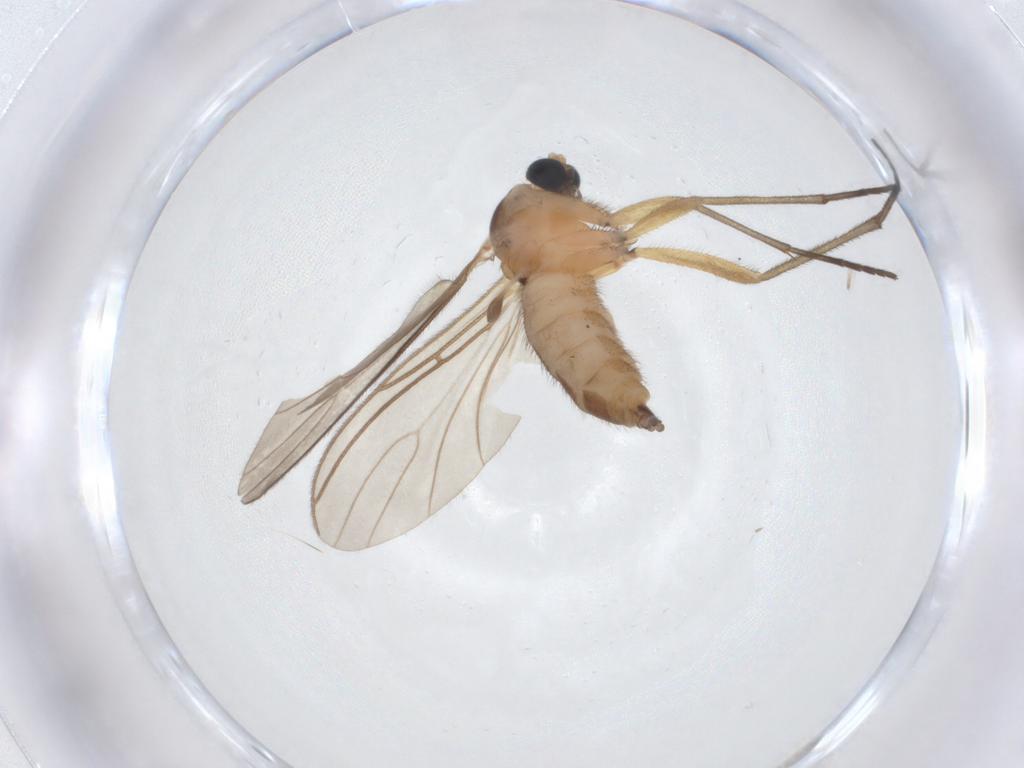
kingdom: Animalia
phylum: Arthropoda
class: Insecta
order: Diptera
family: Sciaridae
